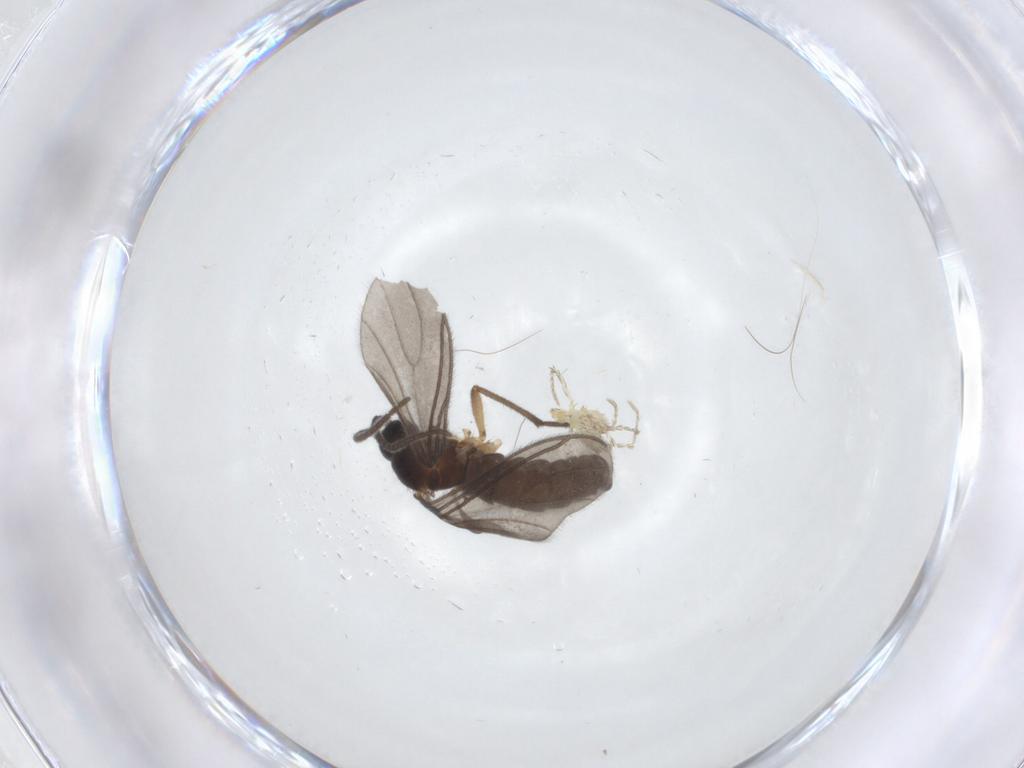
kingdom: Animalia
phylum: Arthropoda
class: Insecta
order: Diptera
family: Sciaridae
